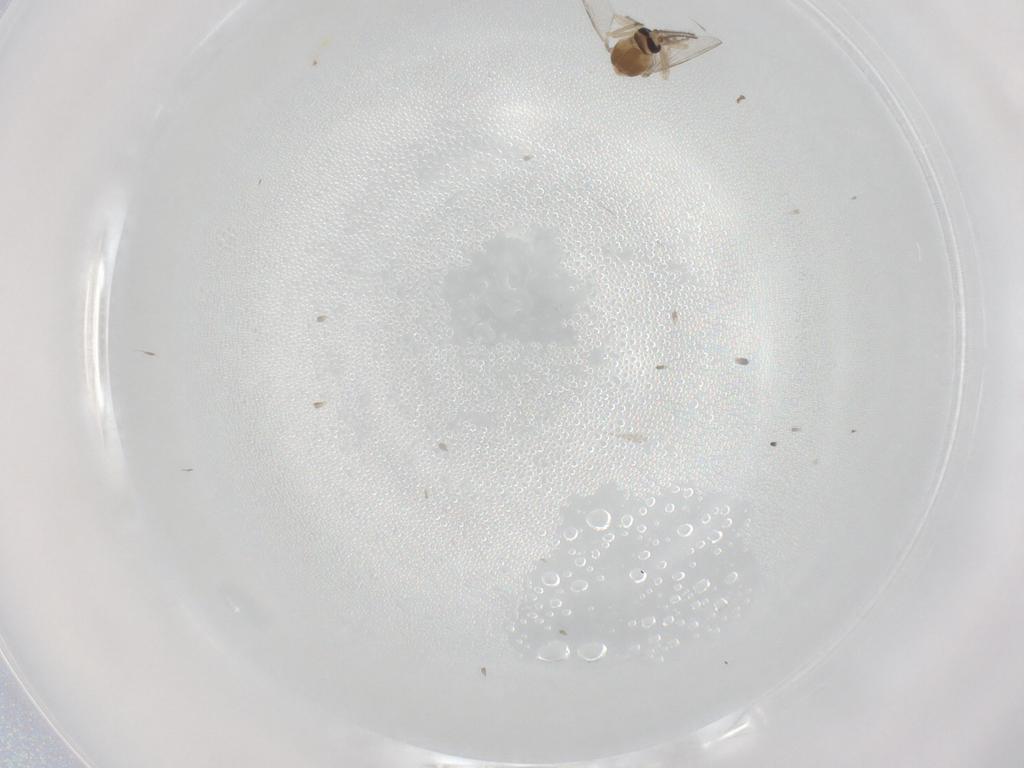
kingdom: Animalia
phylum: Arthropoda
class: Insecta
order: Diptera
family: Ceratopogonidae
